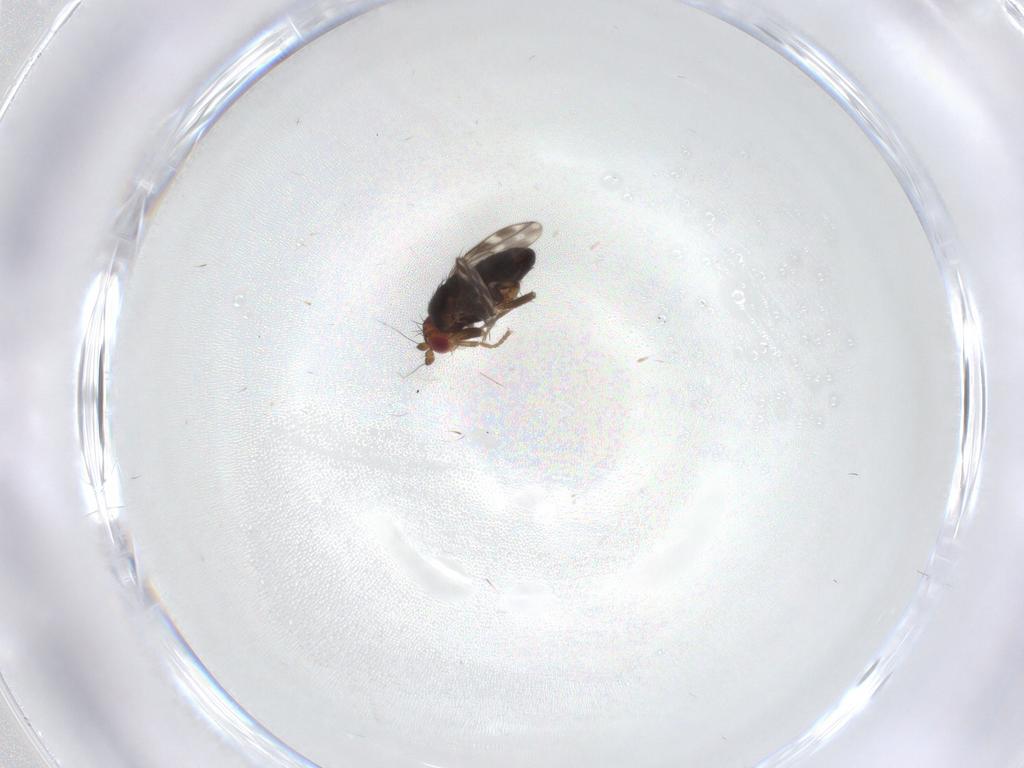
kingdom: Animalia
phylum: Arthropoda
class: Insecta
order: Diptera
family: Sphaeroceridae
